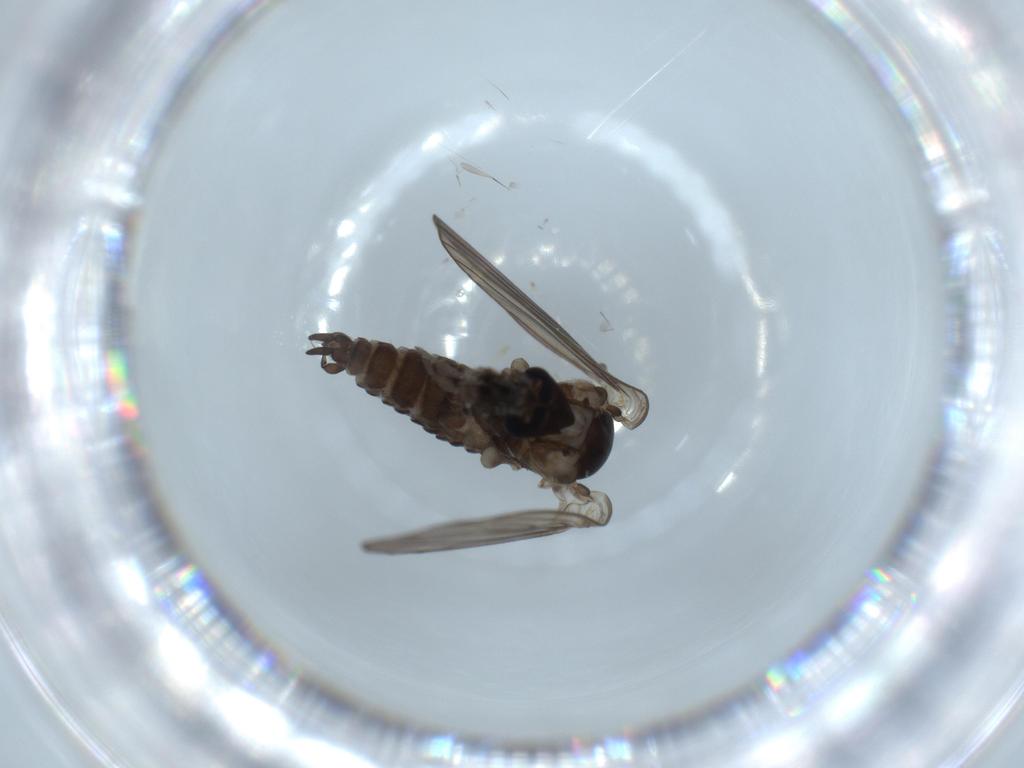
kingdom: Animalia
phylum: Arthropoda
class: Insecta
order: Diptera
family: Psychodidae
